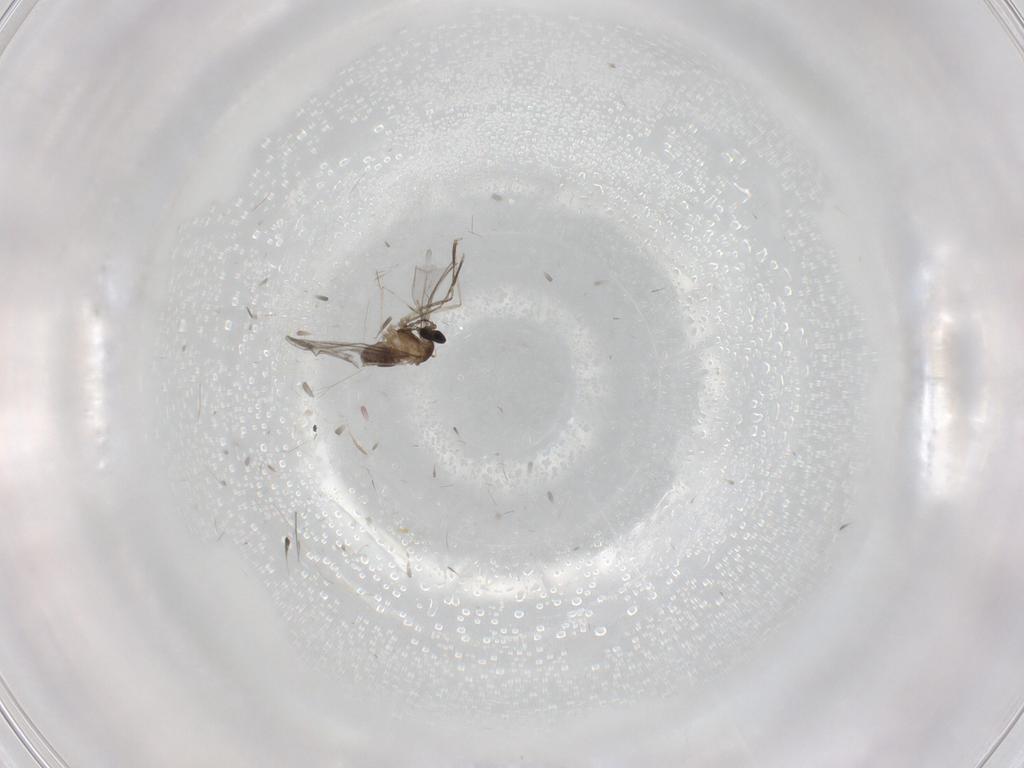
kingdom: Animalia
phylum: Arthropoda
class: Insecta
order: Diptera
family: Cecidomyiidae
